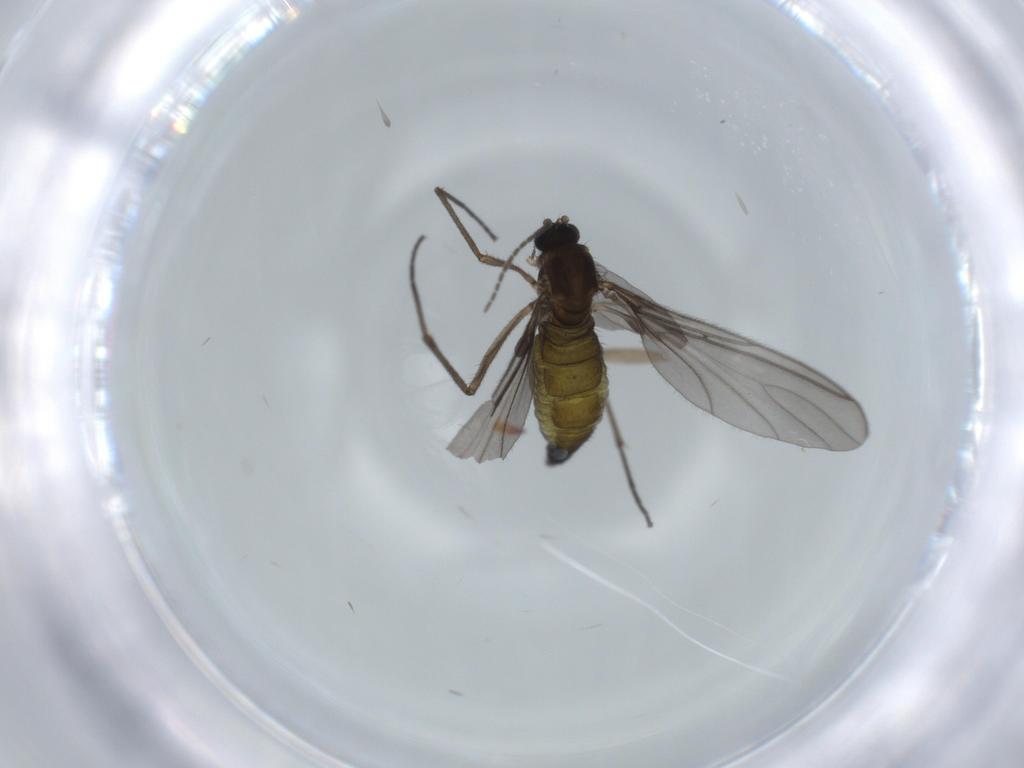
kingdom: Animalia
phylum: Arthropoda
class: Insecta
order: Diptera
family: Sciaridae
